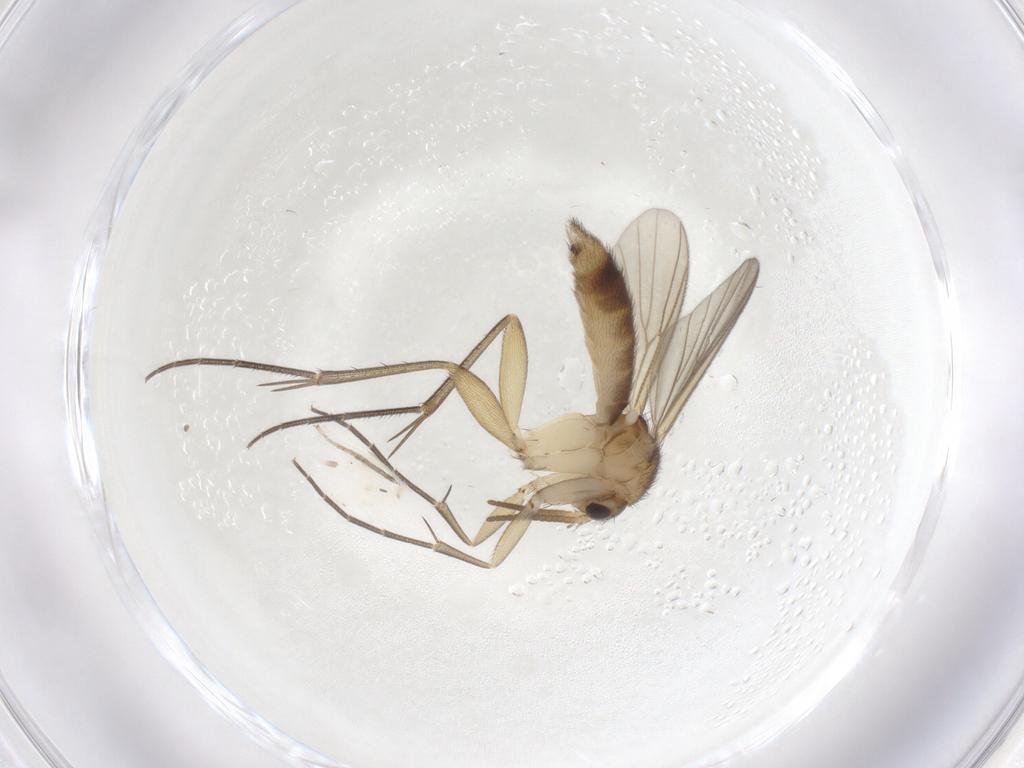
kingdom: Animalia
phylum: Arthropoda
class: Insecta
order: Diptera
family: Mycetophilidae
